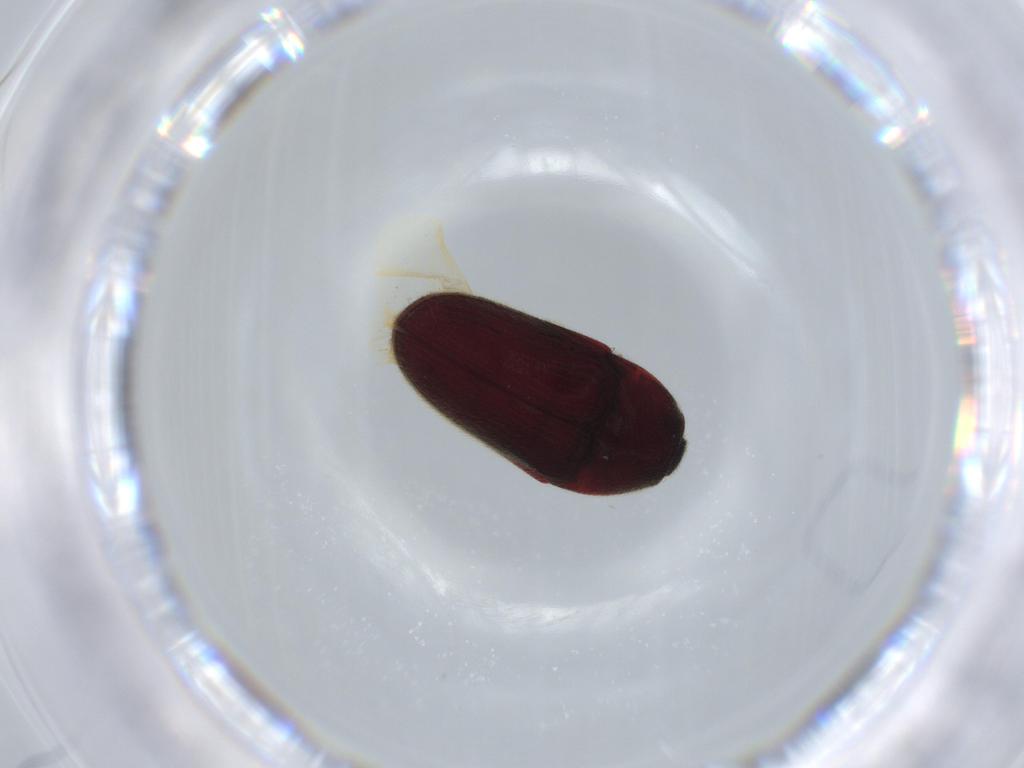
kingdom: Animalia
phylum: Arthropoda
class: Insecta
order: Coleoptera
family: Throscidae
